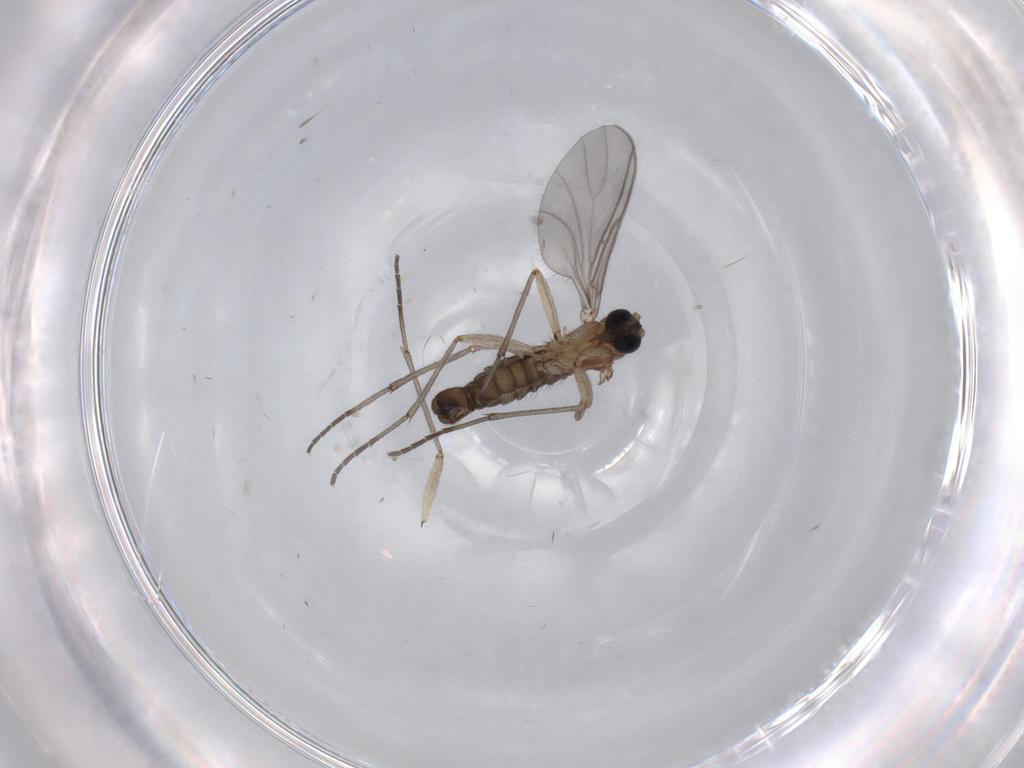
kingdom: Animalia
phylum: Arthropoda
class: Insecta
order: Diptera
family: Sciaridae
